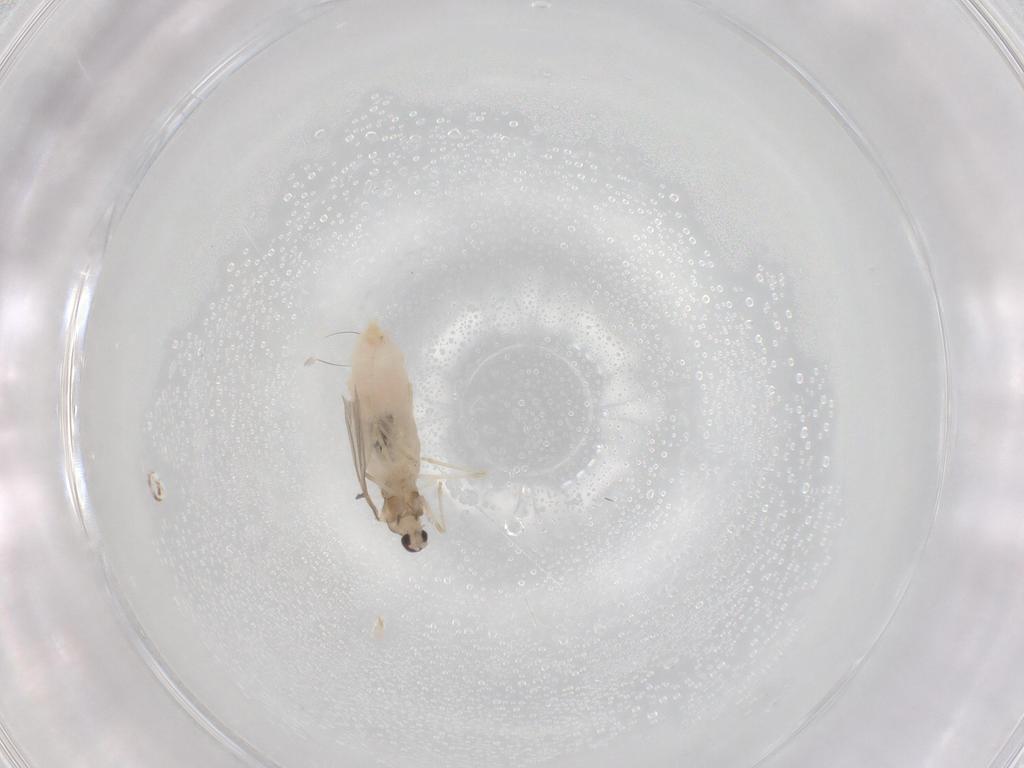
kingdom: Animalia
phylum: Arthropoda
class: Insecta
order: Diptera
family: Cecidomyiidae
